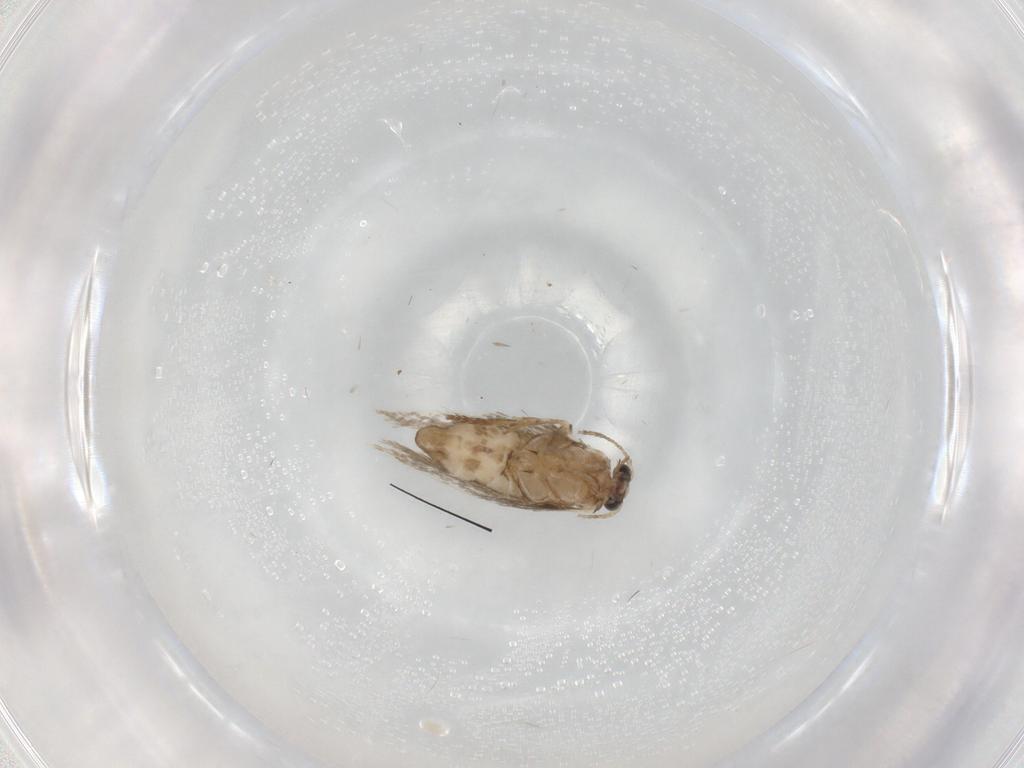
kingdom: Animalia
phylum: Arthropoda
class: Insecta
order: Lepidoptera
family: Nepticulidae
